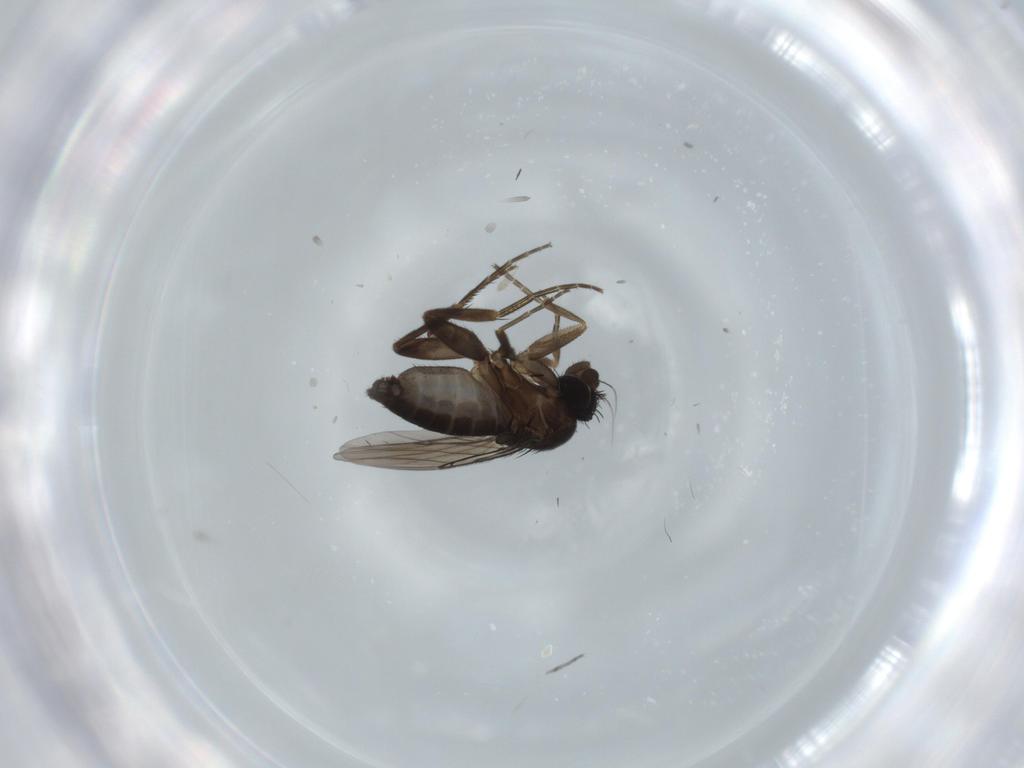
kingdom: Animalia
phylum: Arthropoda
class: Insecta
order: Diptera
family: Phoridae
